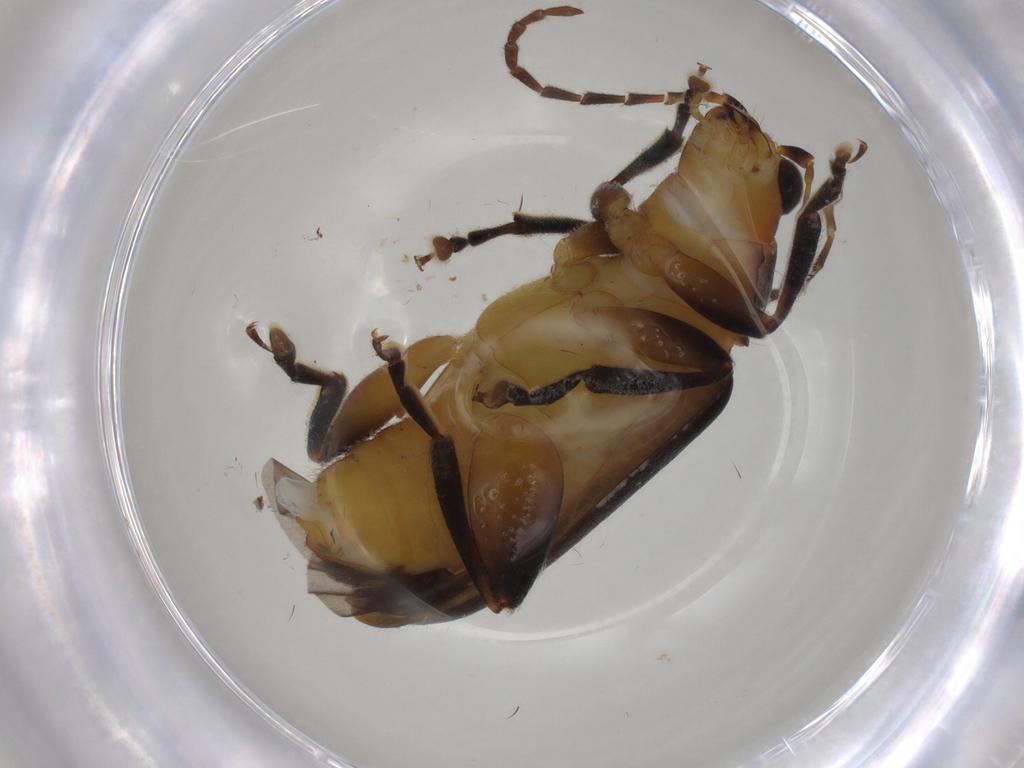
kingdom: Animalia
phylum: Arthropoda
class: Insecta
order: Coleoptera
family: Chrysomelidae
